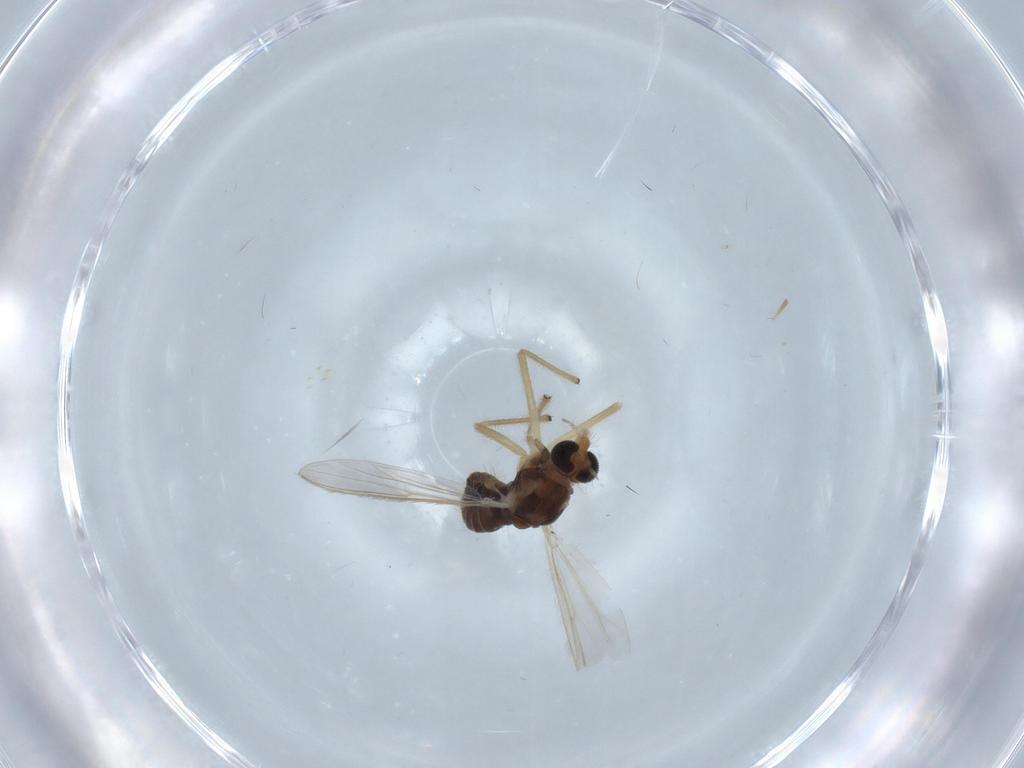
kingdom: Animalia
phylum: Arthropoda
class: Insecta
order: Diptera
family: Chironomidae
